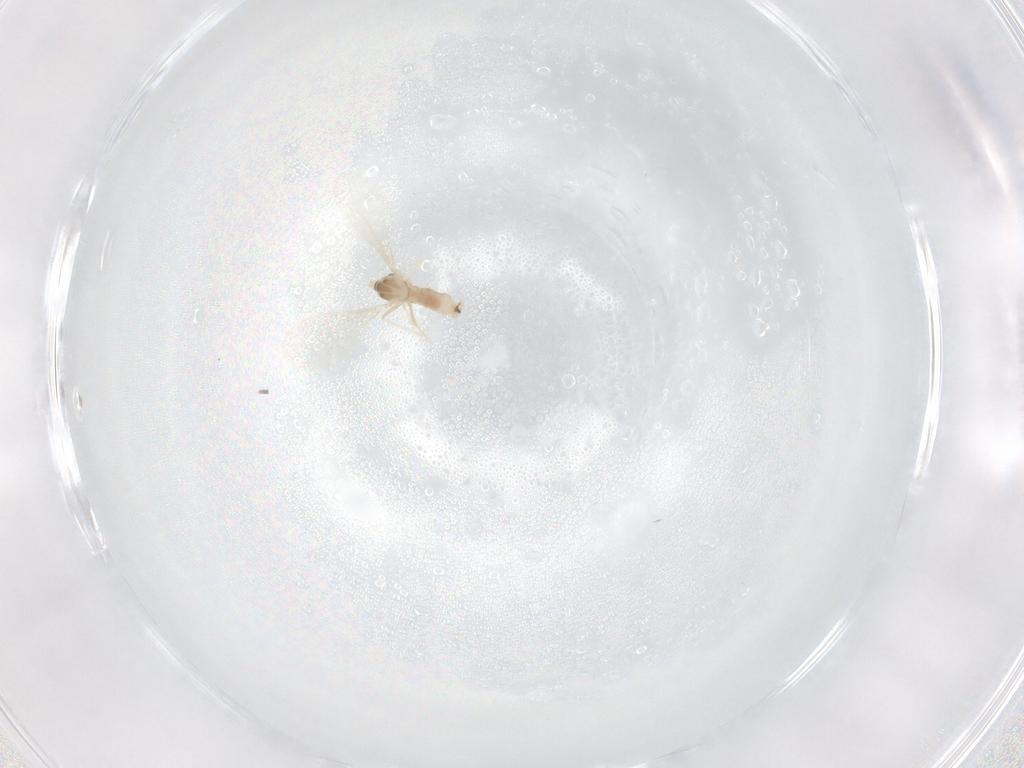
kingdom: Animalia
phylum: Arthropoda
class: Insecta
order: Diptera
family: Cecidomyiidae
